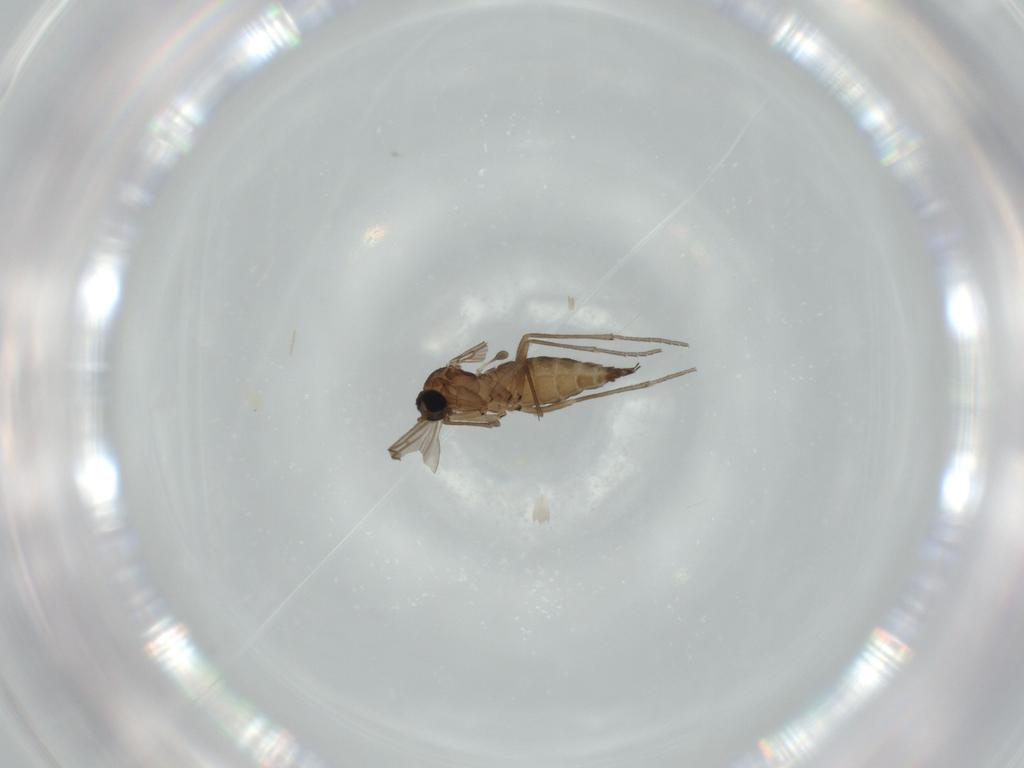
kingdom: Animalia
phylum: Arthropoda
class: Insecta
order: Diptera
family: Sciaridae
